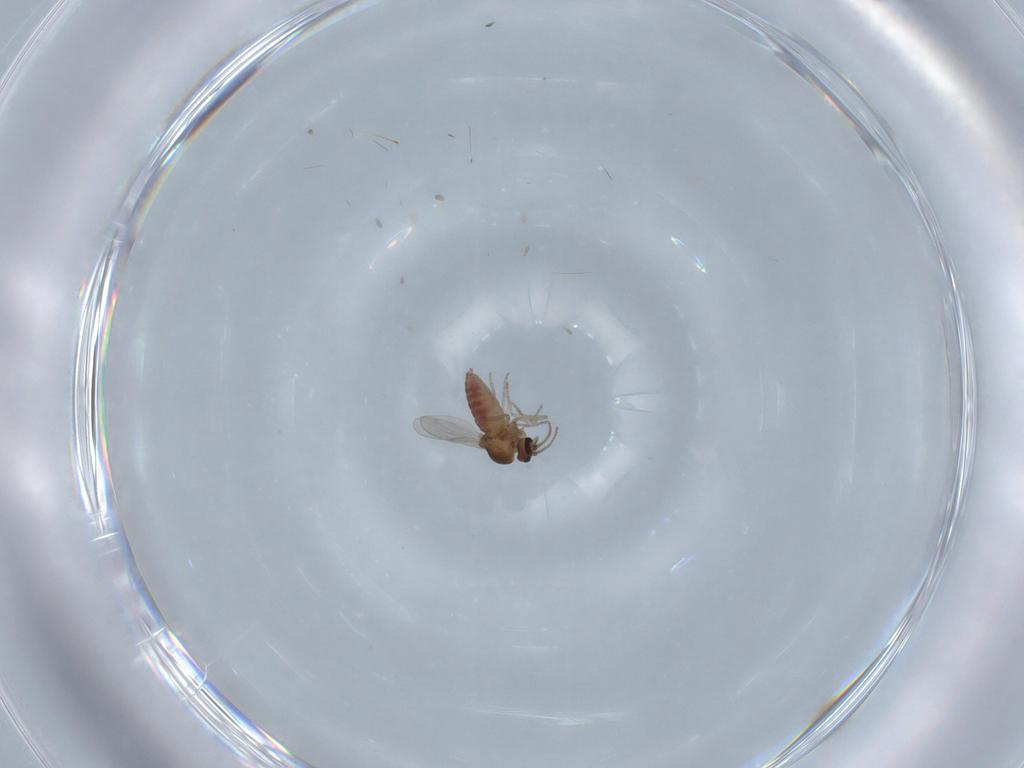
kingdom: Animalia
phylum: Arthropoda
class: Insecta
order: Diptera
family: Ceratopogonidae
